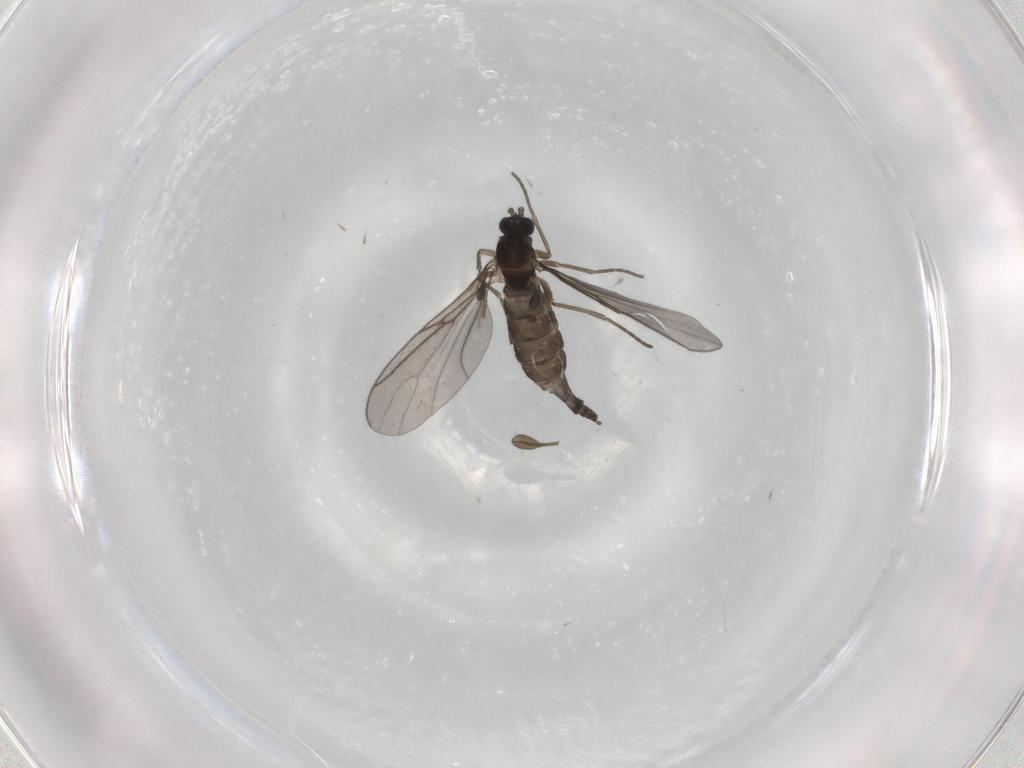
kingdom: Animalia
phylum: Arthropoda
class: Insecta
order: Diptera
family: Sciaridae
